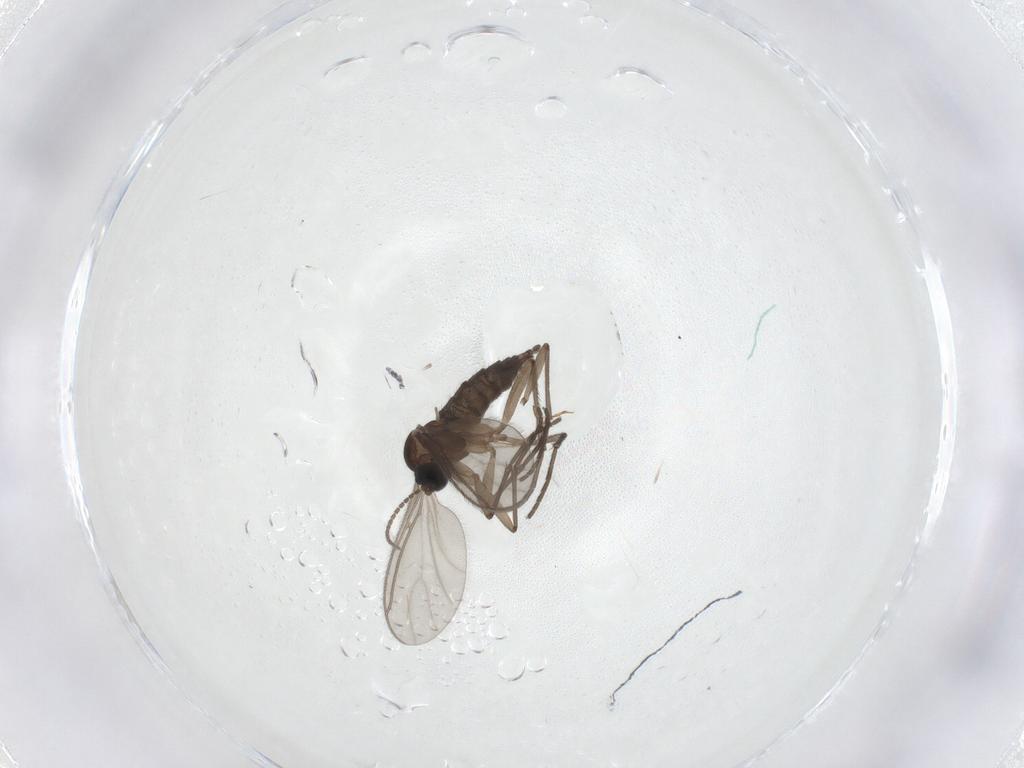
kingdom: Animalia
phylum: Arthropoda
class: Insecta
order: Diptera
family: Sciaridae
